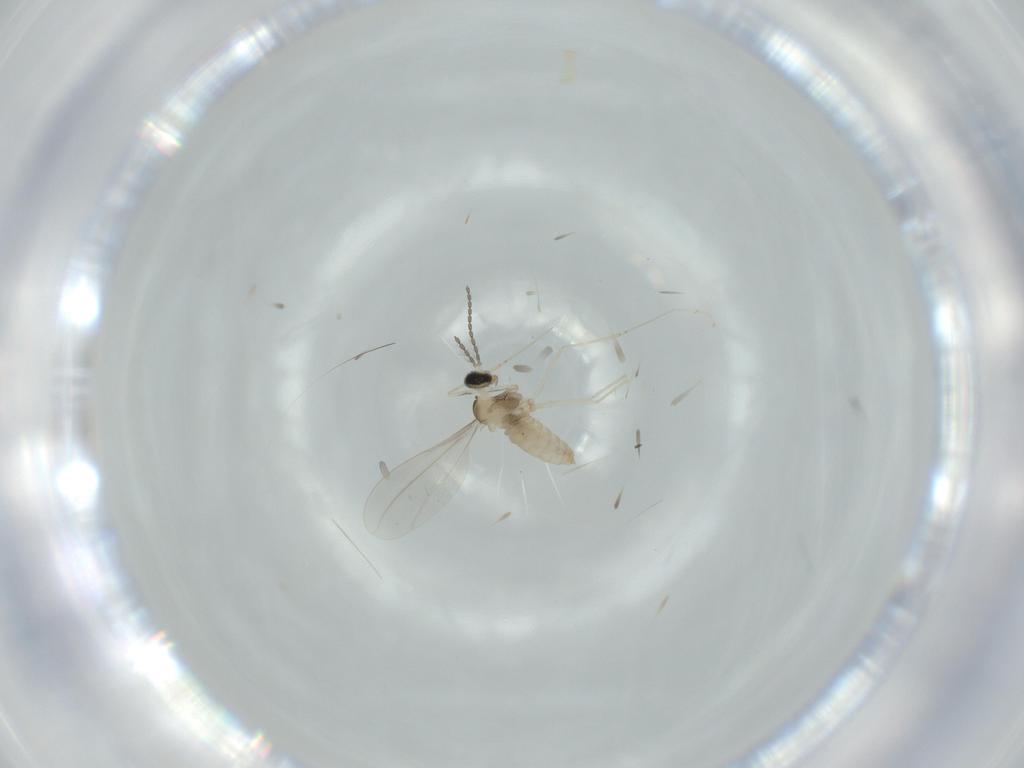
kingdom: Animalia
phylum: Arthropoda
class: Insecta
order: Diptera
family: Cecidomyiidae
